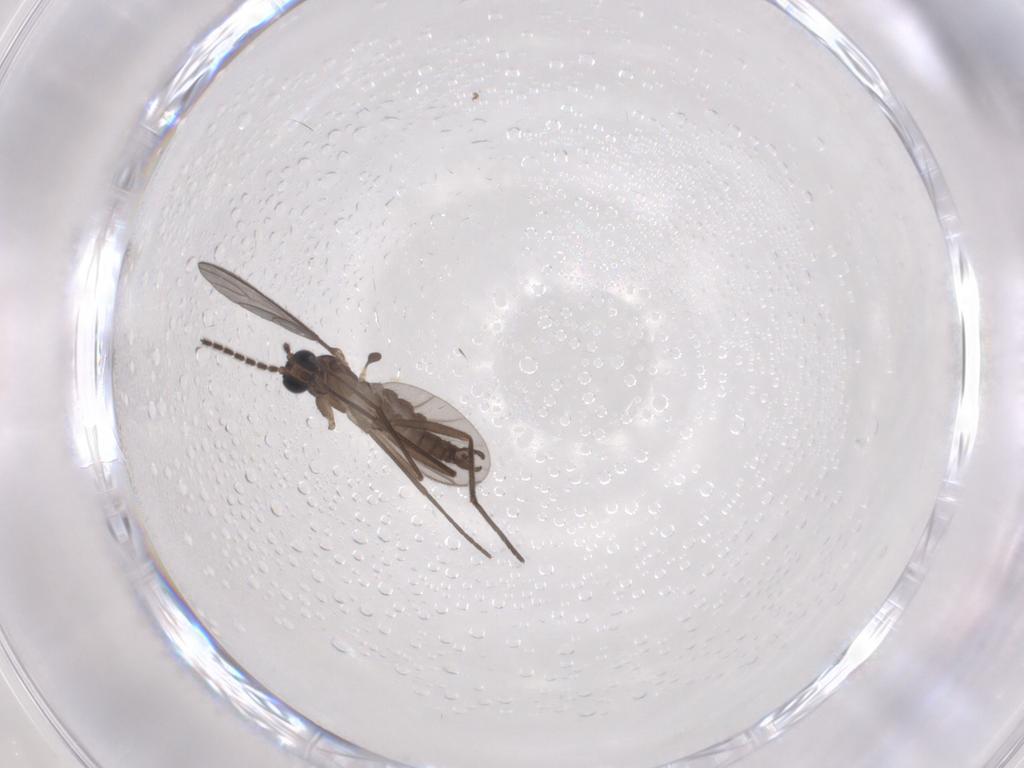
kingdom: Animalia
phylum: Arthropoda
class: Insecta
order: Diptera
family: Sciaridae
